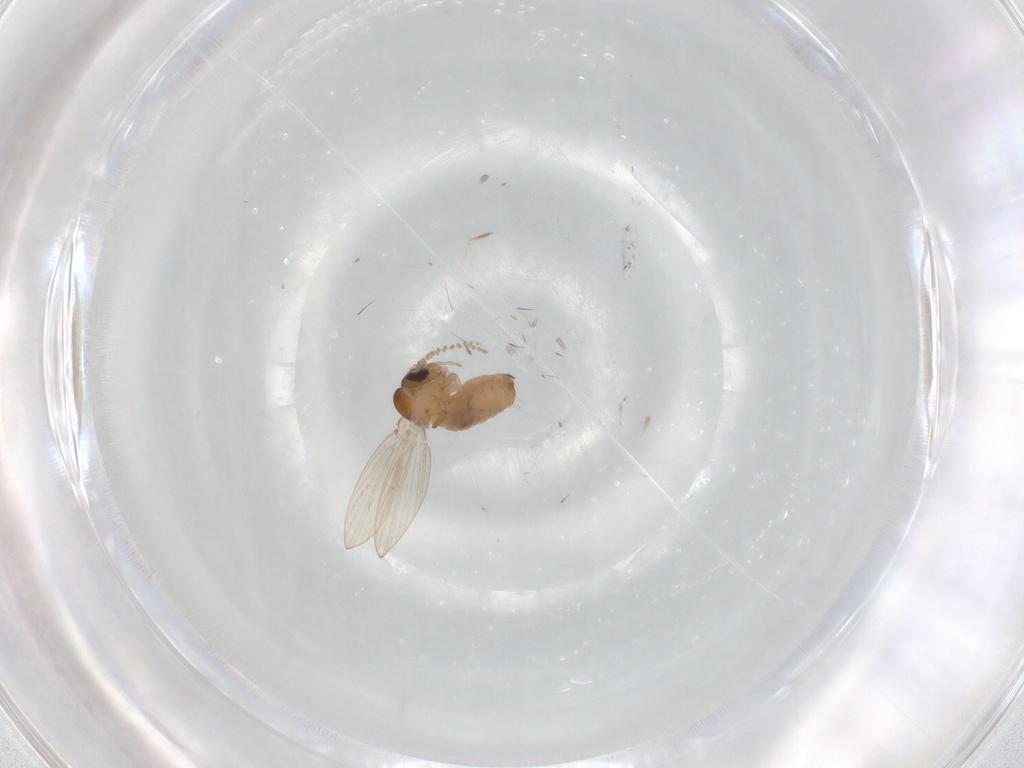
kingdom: Animalia
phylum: Arthropoda
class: Insecta
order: Diptera
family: Psychodidae
